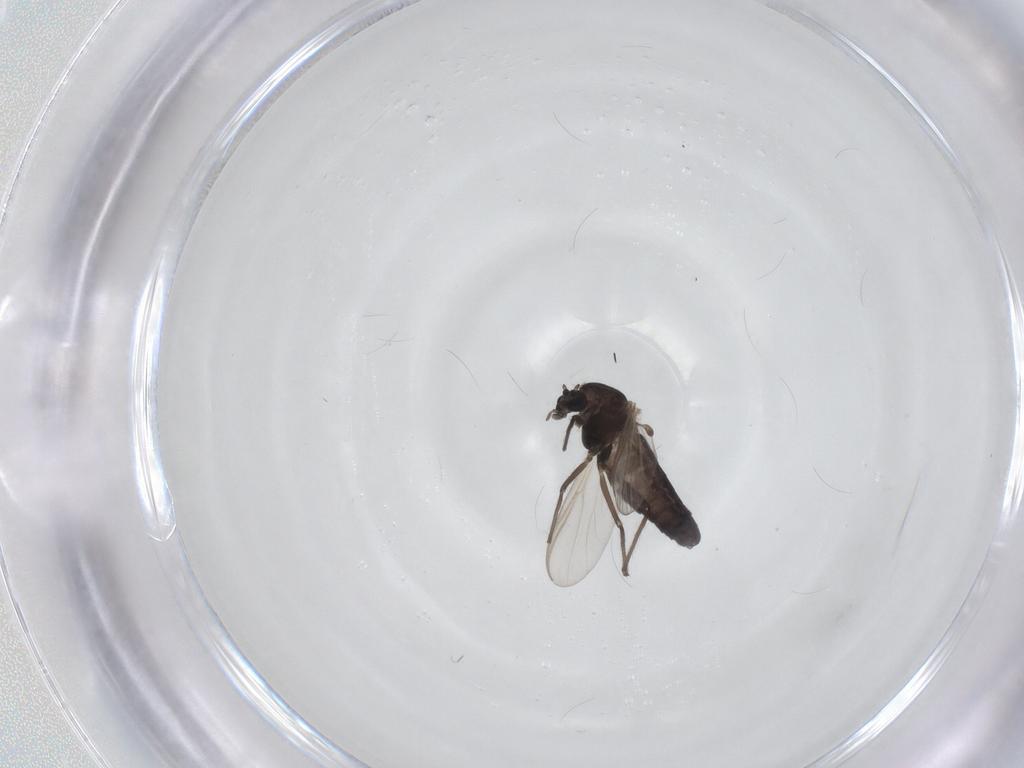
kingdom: Animalia
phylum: Arthropoda
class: Insecta
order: Diptera
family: Chironomidae
